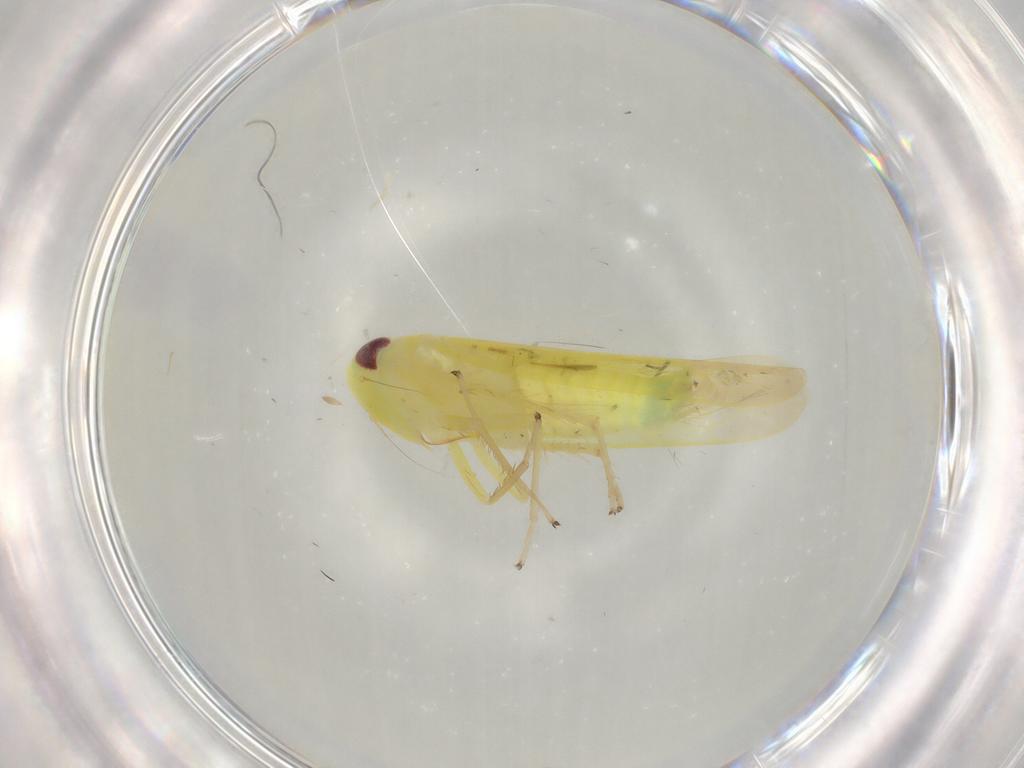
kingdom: Animalia
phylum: Arthropoda
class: Insecta
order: Hemiptera
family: Cicadellidae
